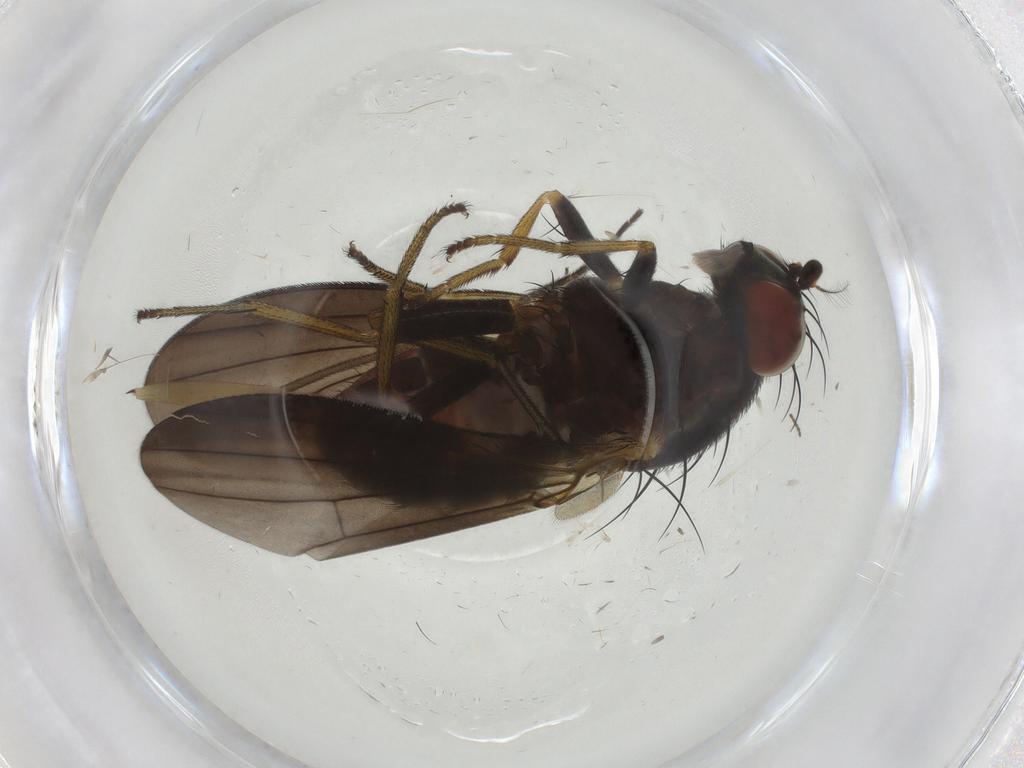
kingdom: Animalia
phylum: Arthropoda
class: Insecta
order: Diptera
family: Sciaridae
